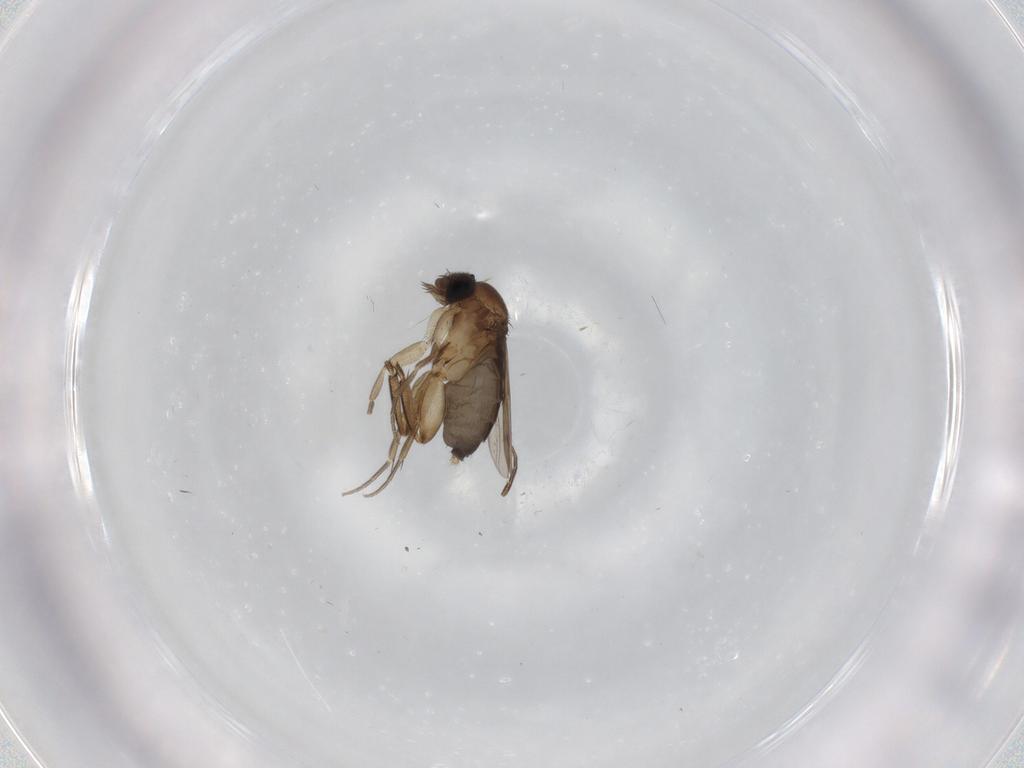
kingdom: Animalia
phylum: Arthropoda
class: Insecta
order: Diptera
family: Phoridae
